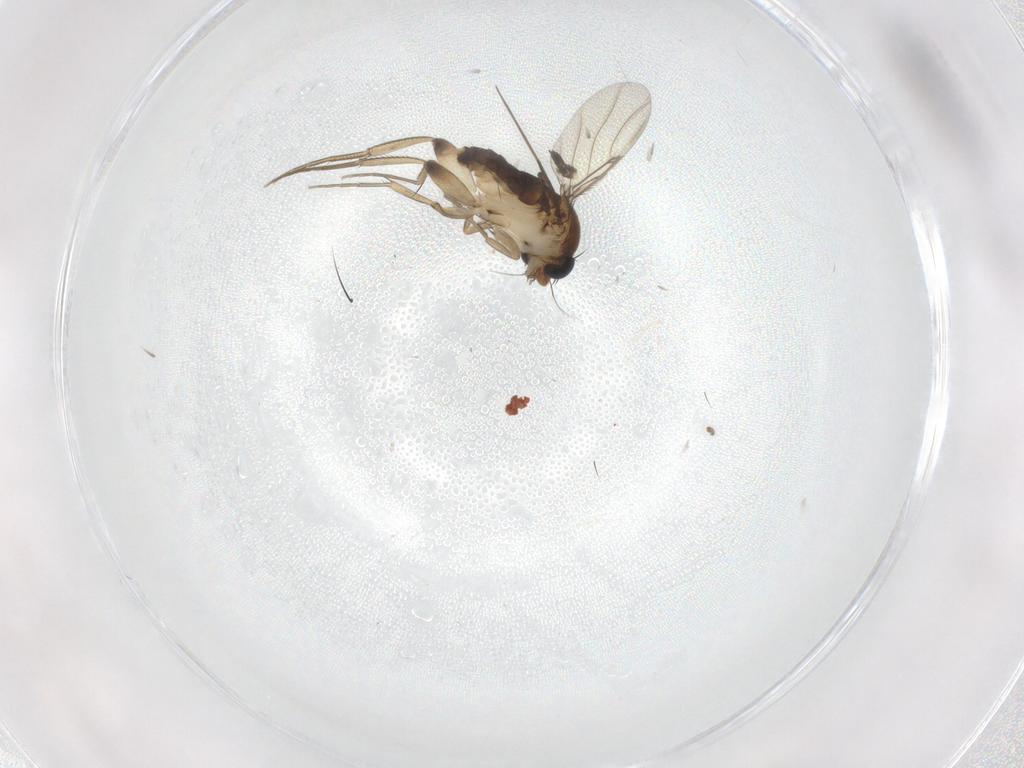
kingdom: Animalia
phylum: Arthropoda
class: Insecta
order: Diptera
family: Phoridae
